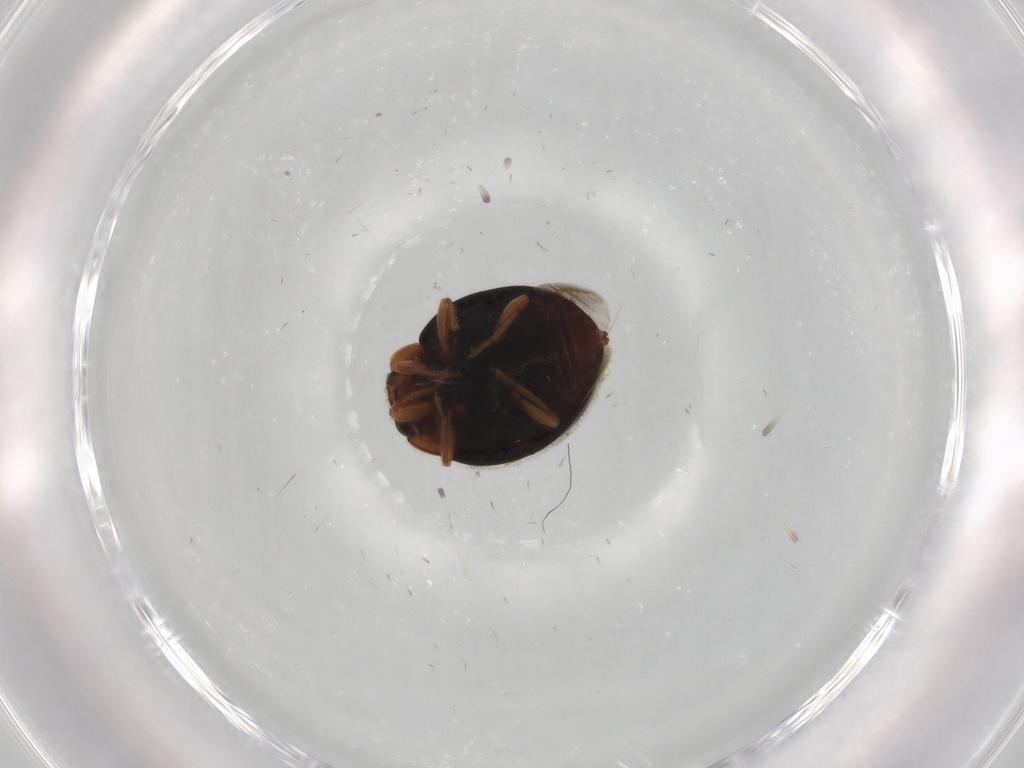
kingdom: Animalia
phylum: Arthropoda
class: Insecta
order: Coleoptera
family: Coccinellidae
